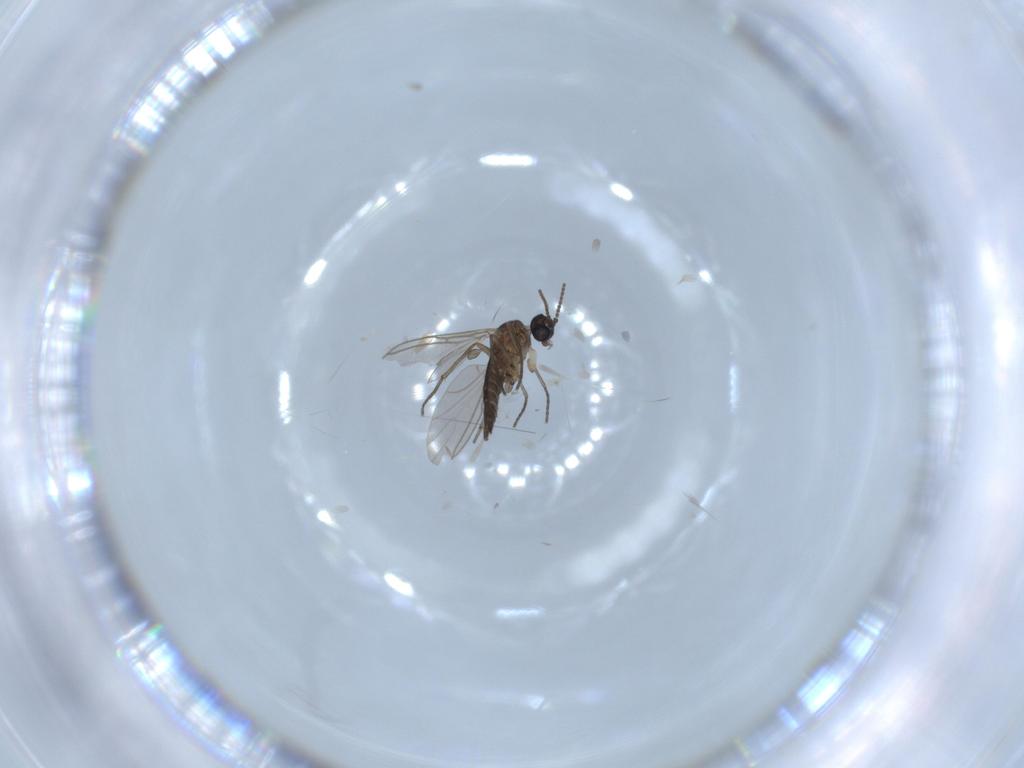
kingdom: Animalia
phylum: Arthropoda
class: Insecta
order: Diptera
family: Sciaridae
